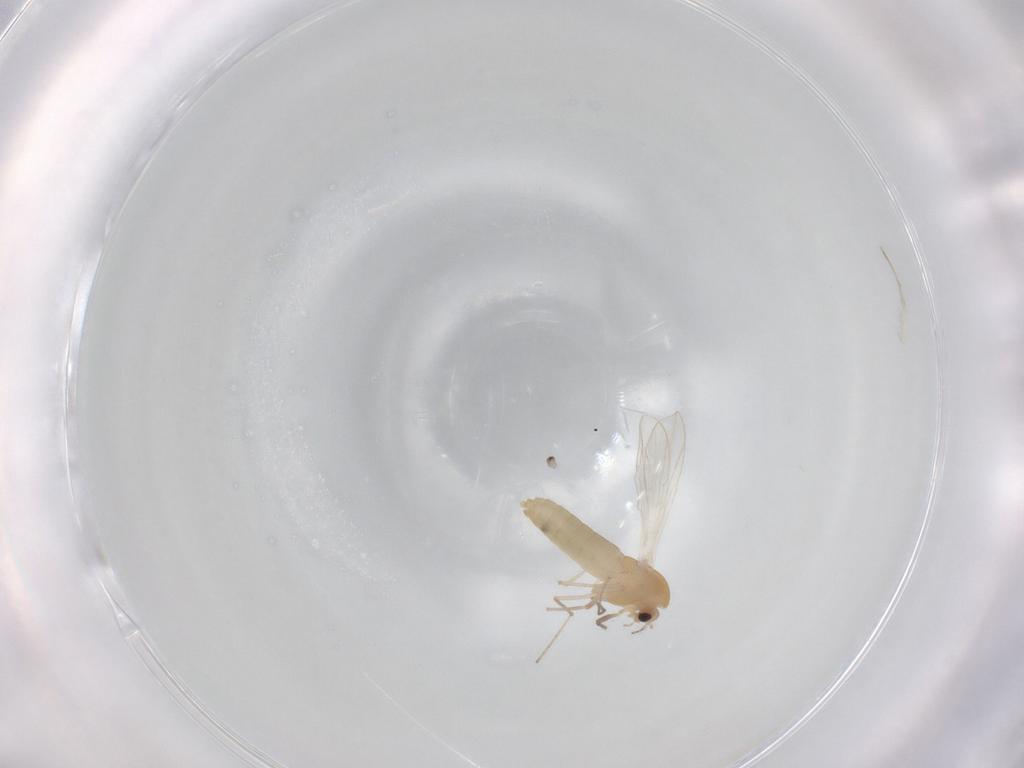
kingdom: Animalia
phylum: Arthropoda
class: Insecta
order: Diptera
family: Chironomidae
